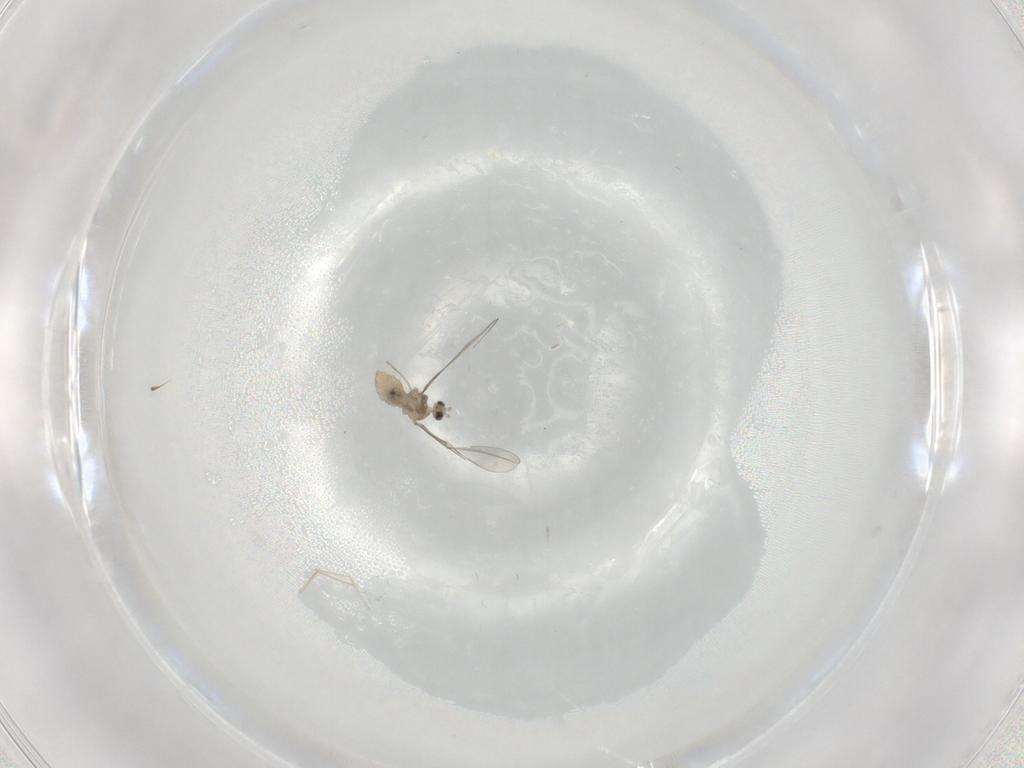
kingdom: Animalia
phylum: Arthropoda
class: Insecta
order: Diptera
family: Cecidomyiidae
